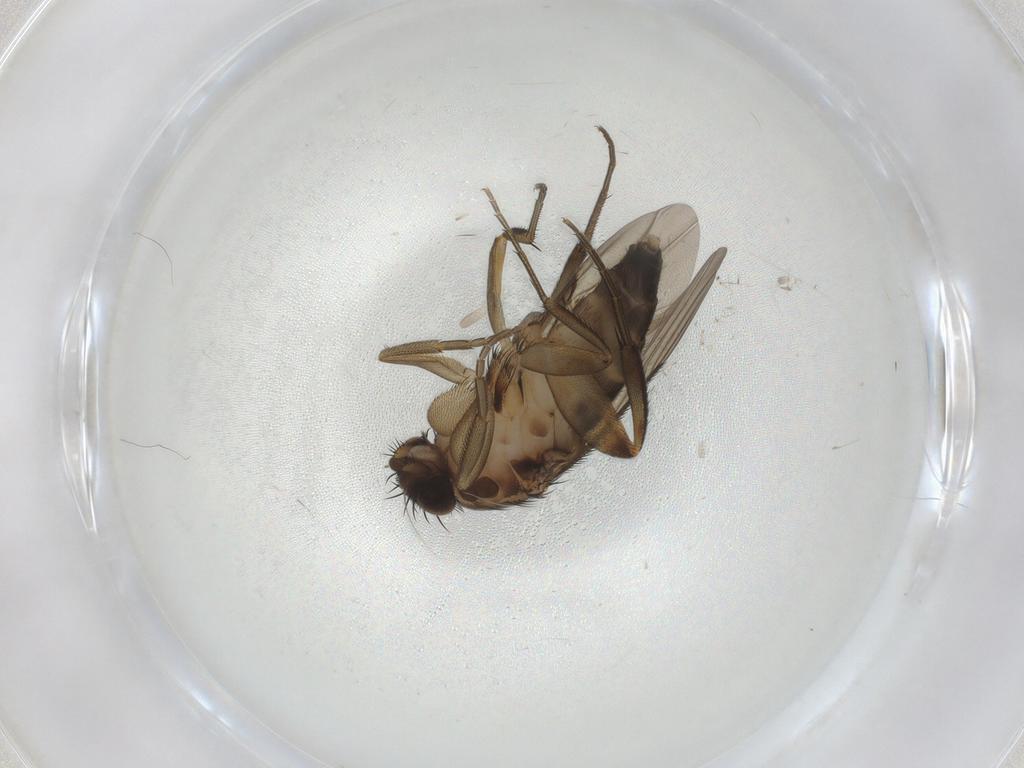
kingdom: Animalia
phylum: Arthropoda
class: Insecta
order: Diptera
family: Phoridae
